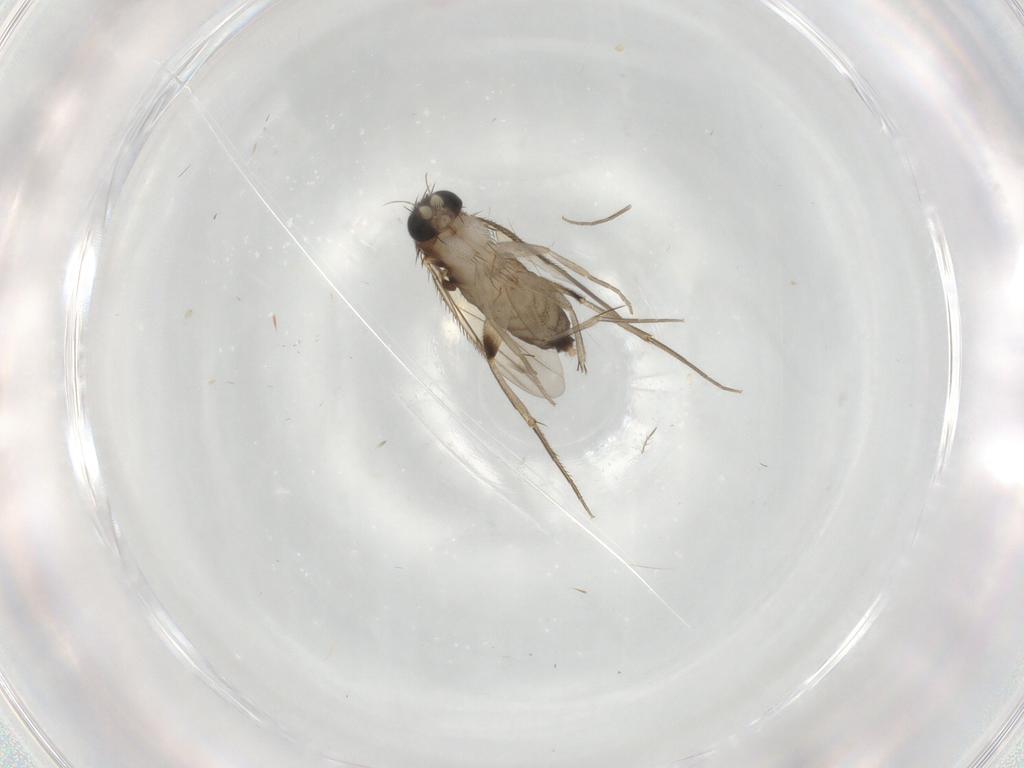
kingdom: Animalia
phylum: Arthropoda
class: Insecta
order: Diptera
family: Phoridae
